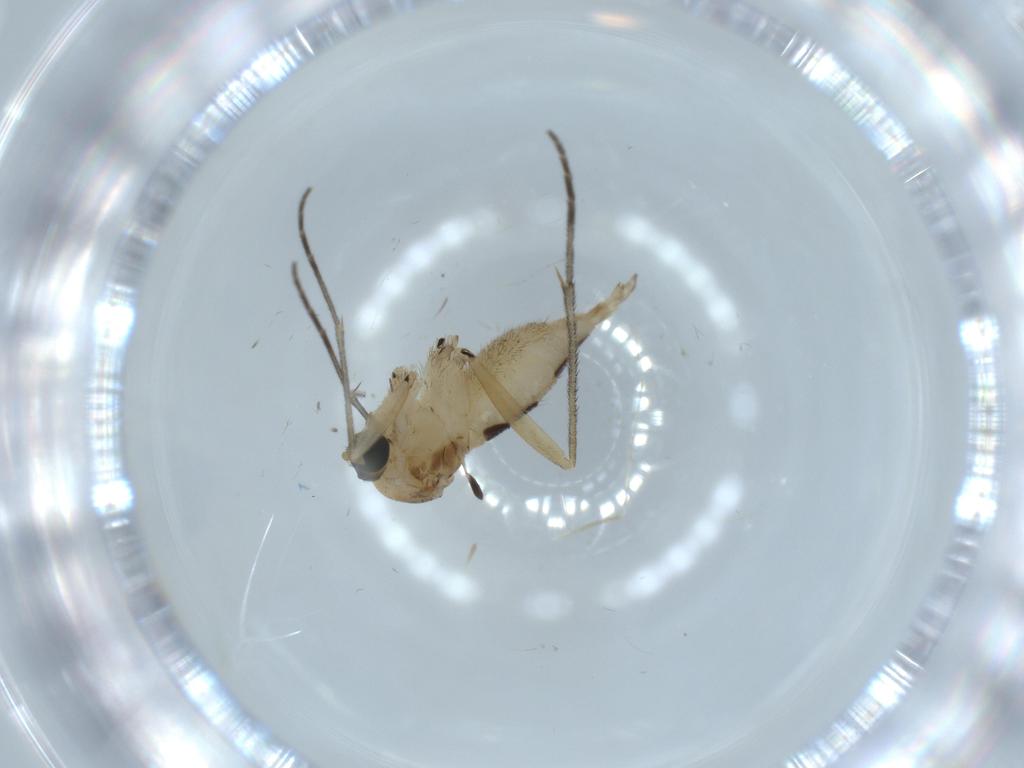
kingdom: Animalia
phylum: Arthropoda
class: Insecta
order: Diptera
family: Sciaridae
